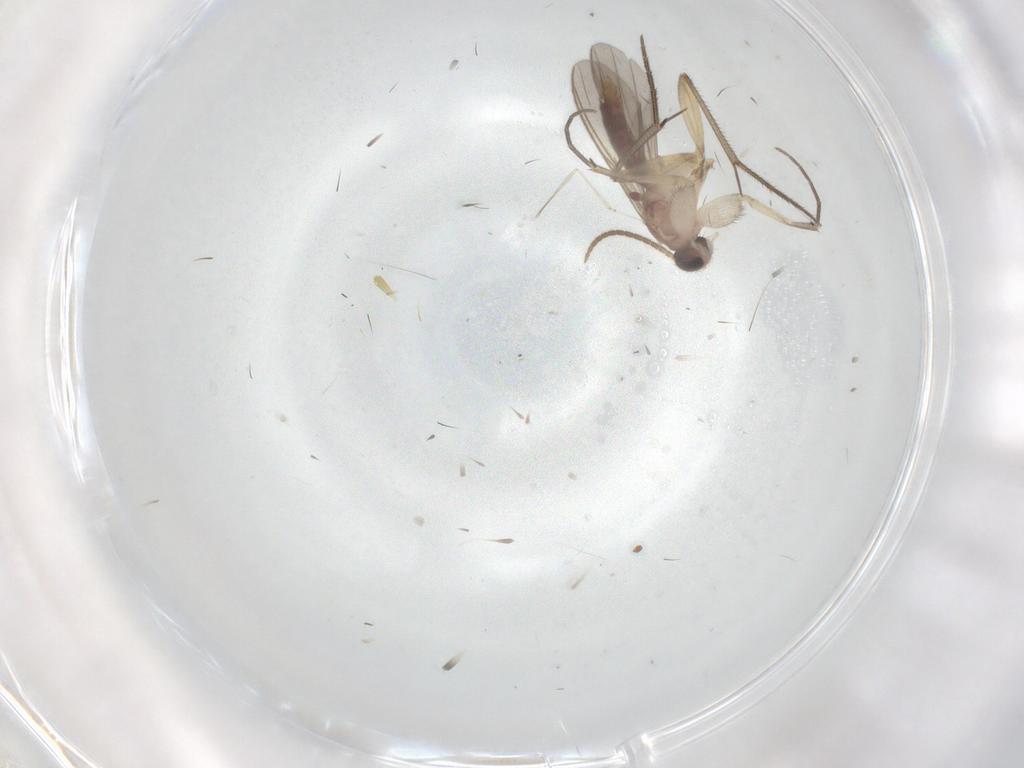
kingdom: Animalia
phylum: Arthropoda
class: Insecta
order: Diptera
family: Mycetophilidae
